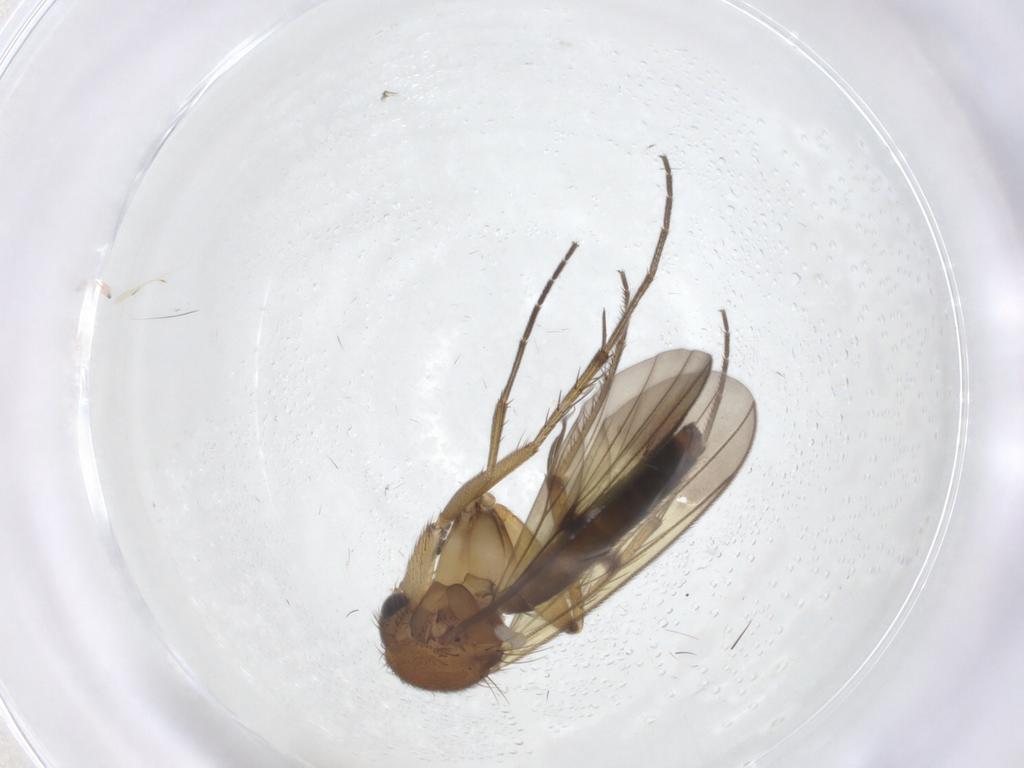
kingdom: Animalia
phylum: Arthropoda
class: Insecta
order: Diptera
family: Mycetophilidae
